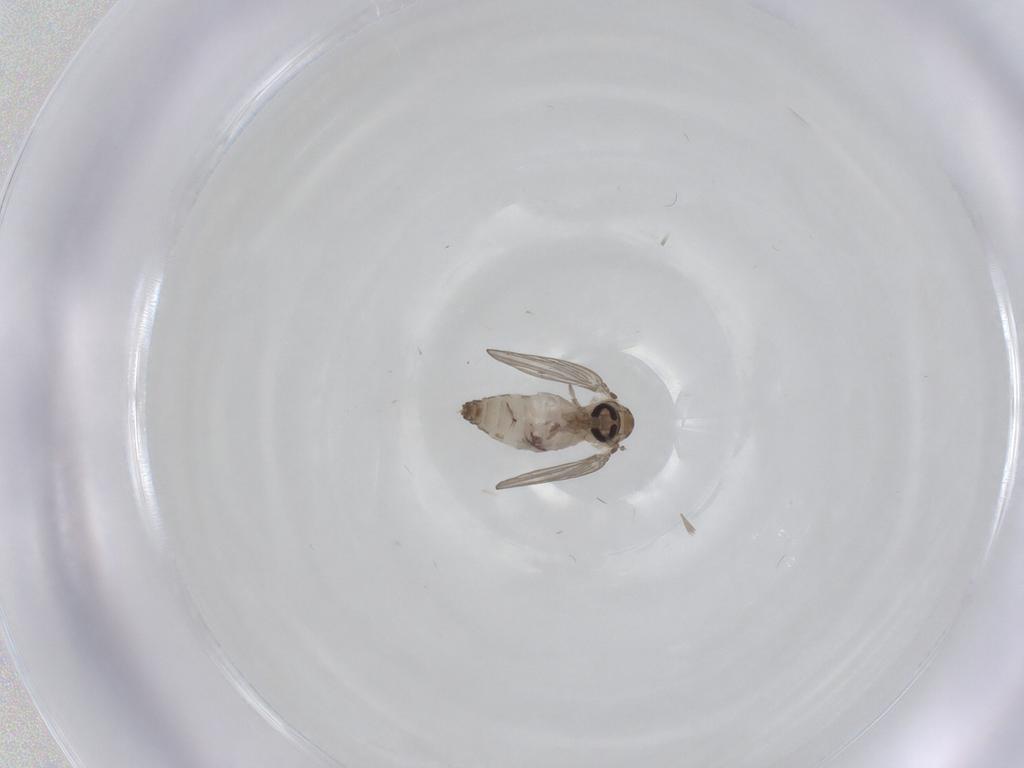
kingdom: Animalia
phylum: Arthropoda
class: Insecta
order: Diptera
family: Psychodidae
